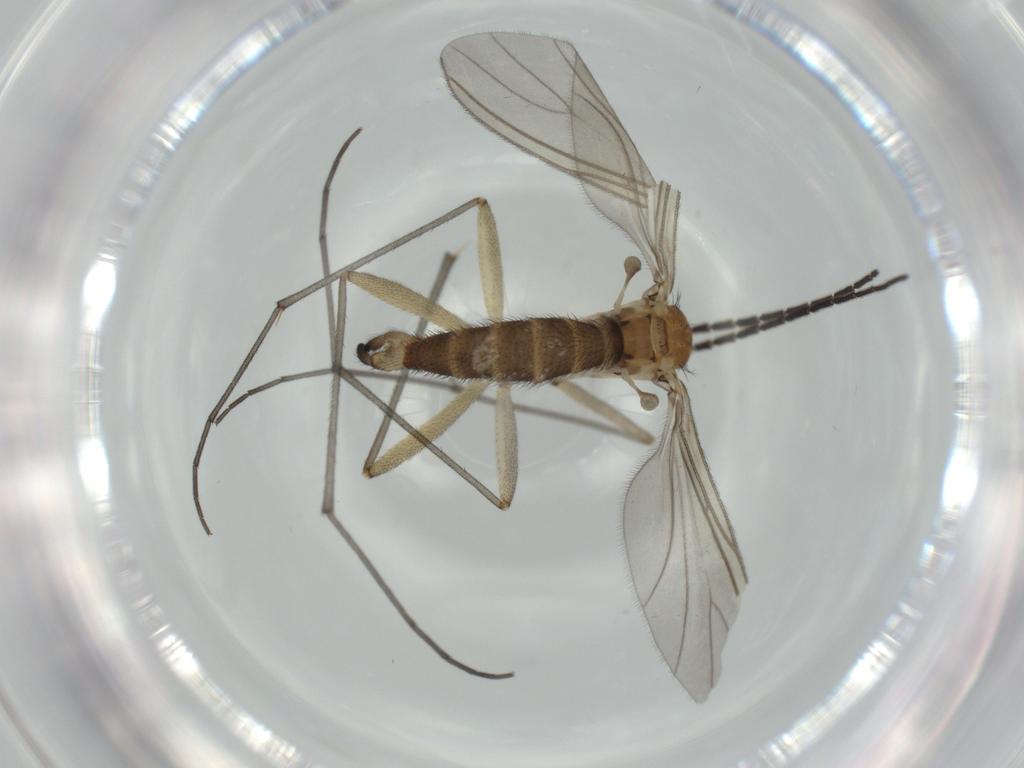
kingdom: Animalia
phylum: Arthropoda
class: Insecta
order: Diptera
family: Sciaridae
